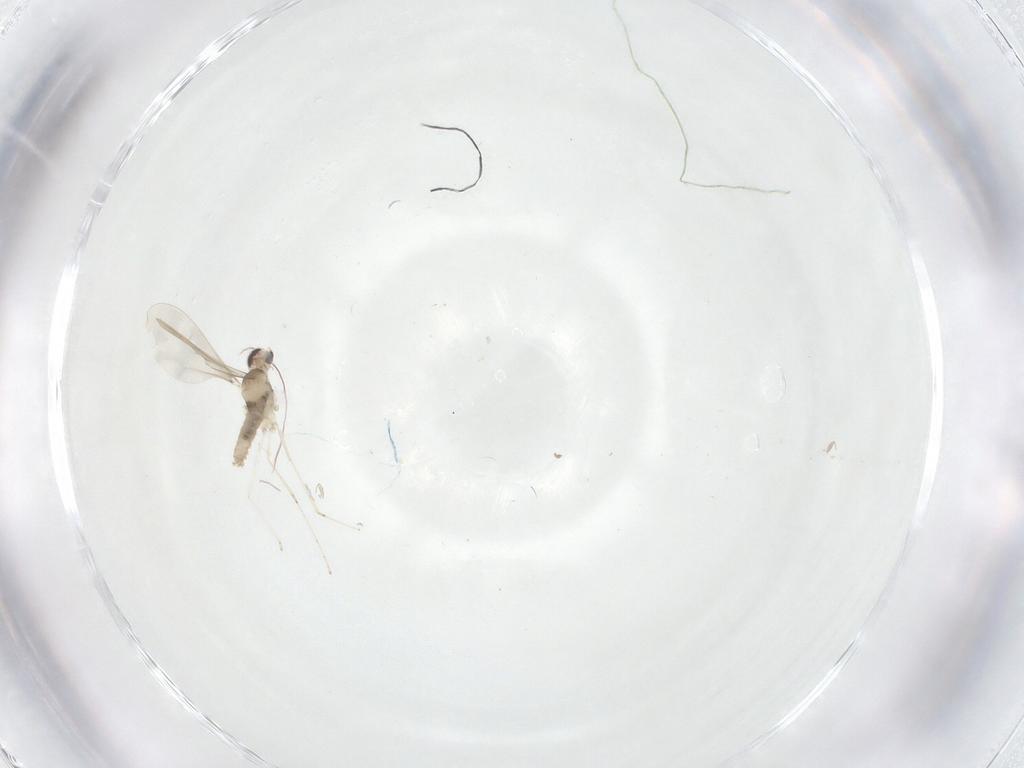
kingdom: Animalia
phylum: Arthropoda
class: Insecta
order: Diptera
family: Cecidomyiidae
